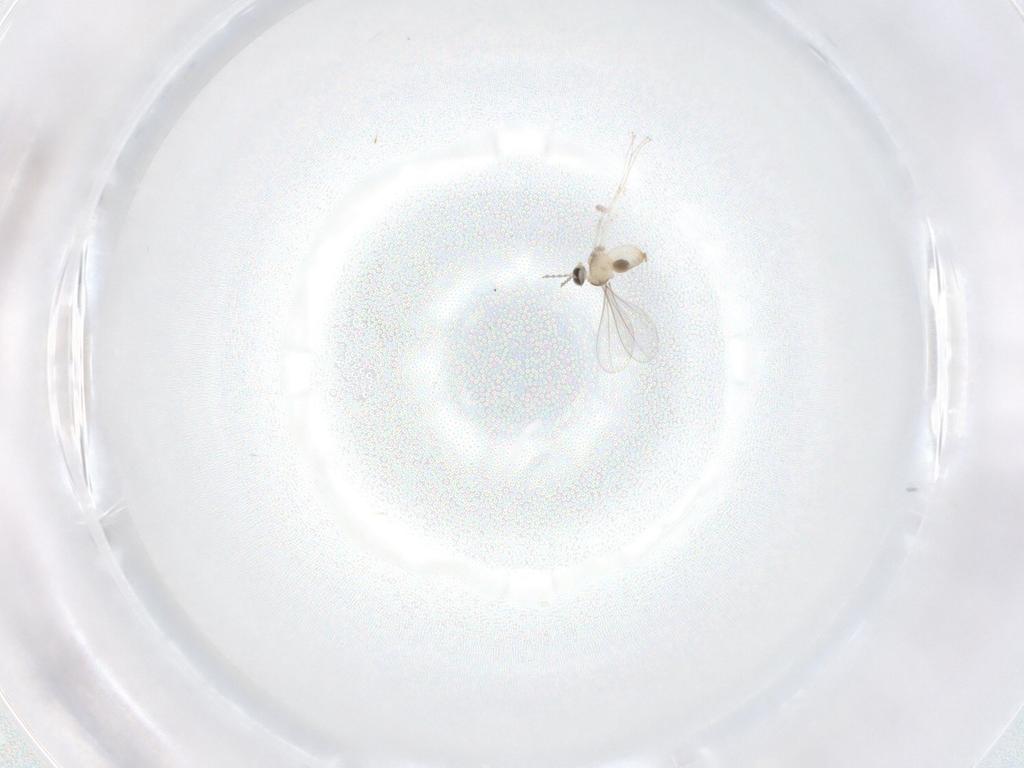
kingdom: Animalia
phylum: Arthropoda
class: Insecta
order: Diptera
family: Cecidomyiidae
